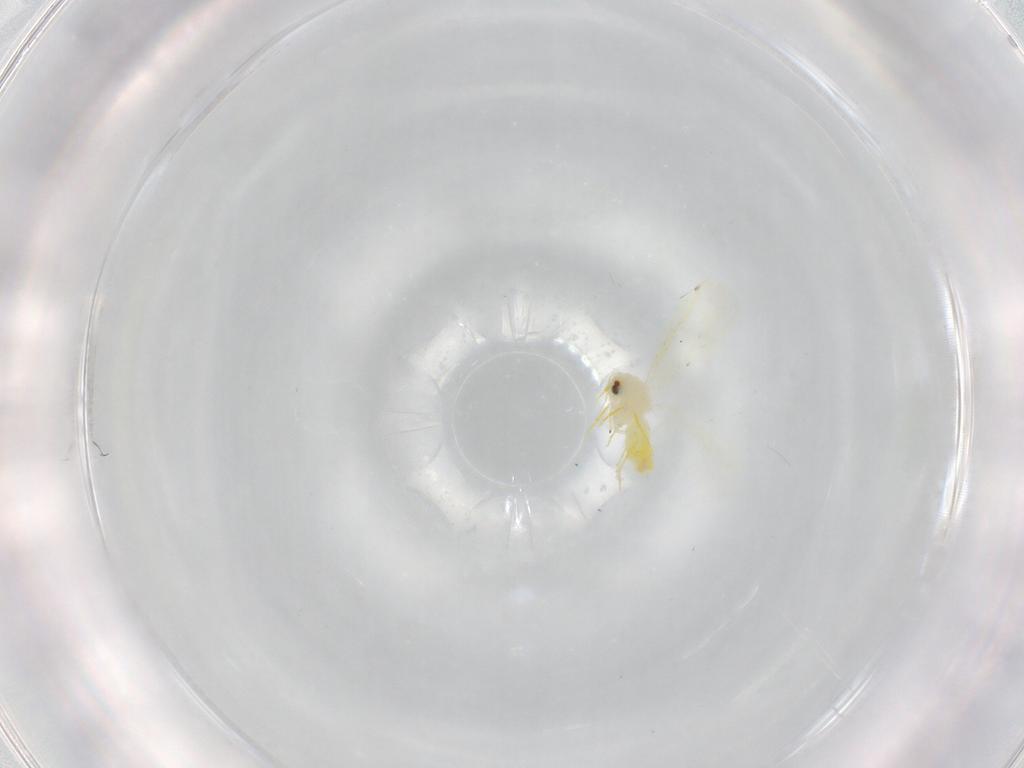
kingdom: Animalia
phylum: Arthropoda
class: Insecta
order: Hemiptera
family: Aleyrodidae
